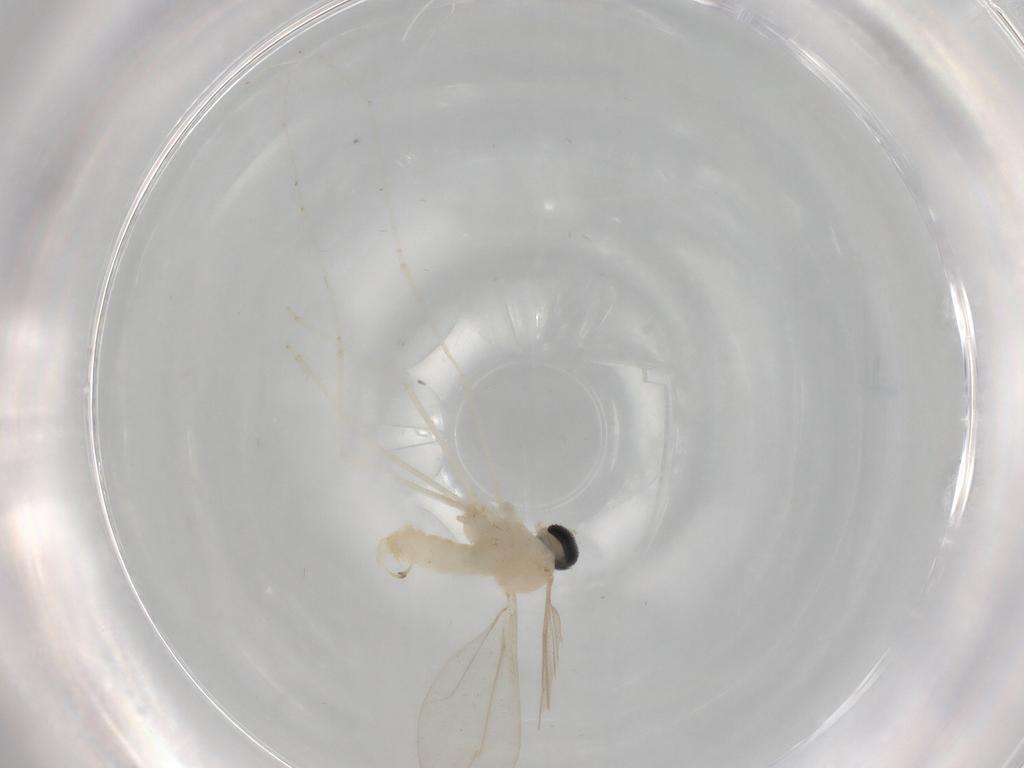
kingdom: Animalia
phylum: Arthropoda
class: Insecta
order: Diptera
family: Cecidomyiidae
